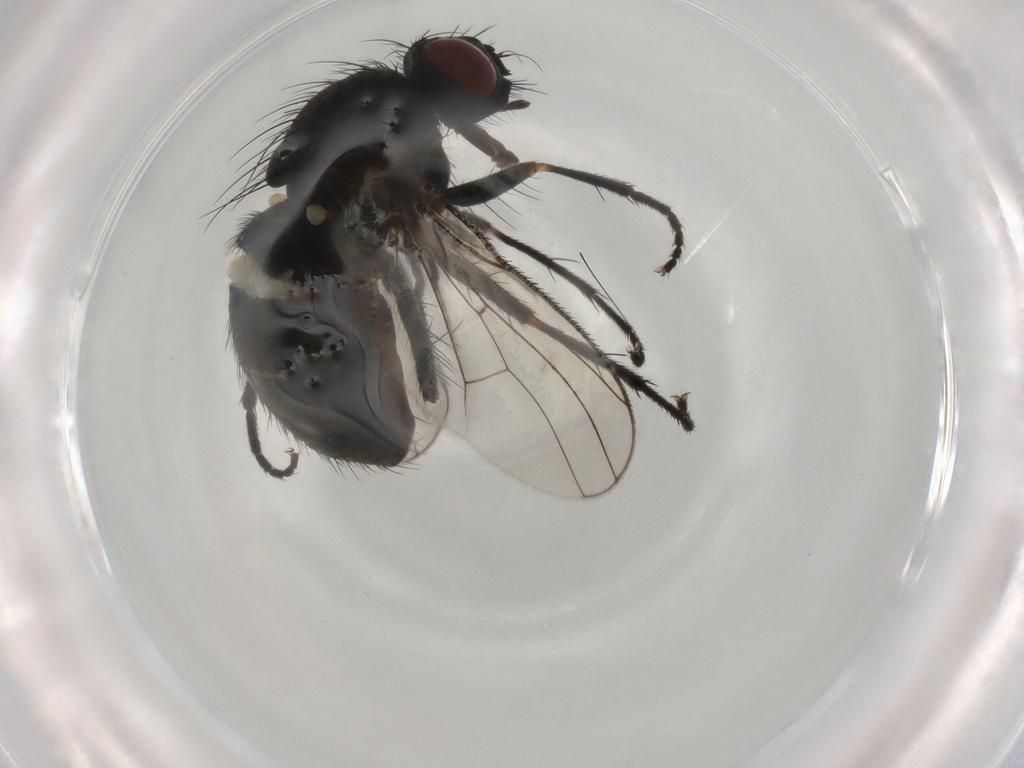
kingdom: Animalia
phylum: Arthropoda
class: Insecta
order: Diptera
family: Muscidae
